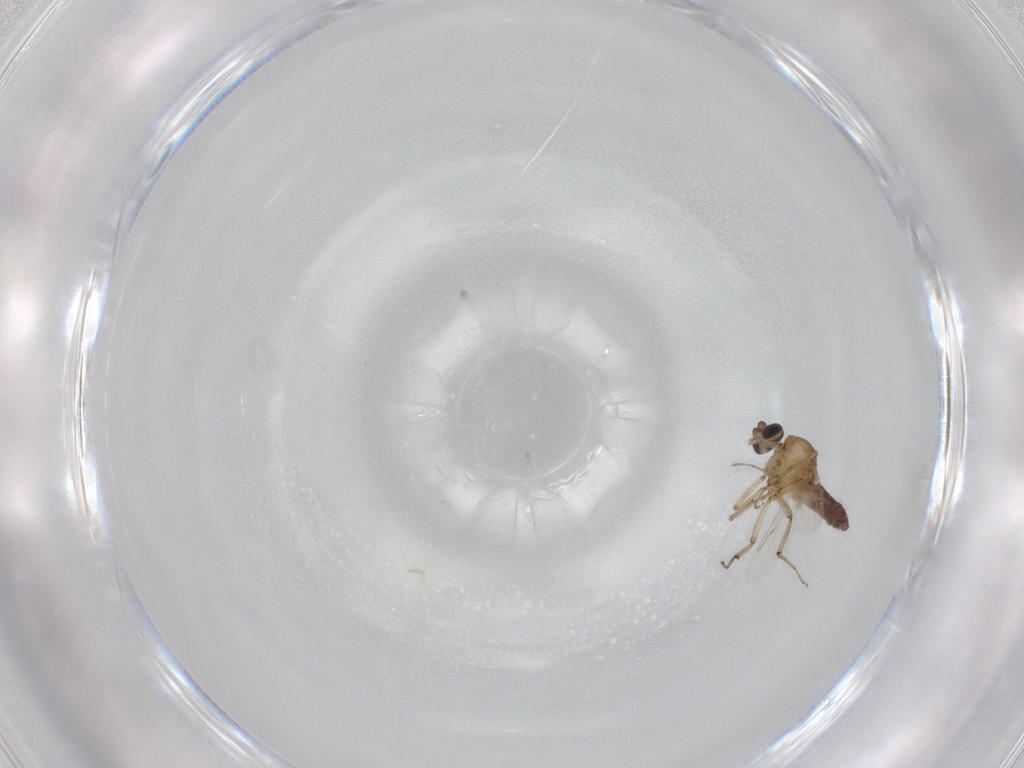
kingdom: Animalia
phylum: Arthropoda
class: Insecta
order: Diptera
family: Ceratopogonidae
